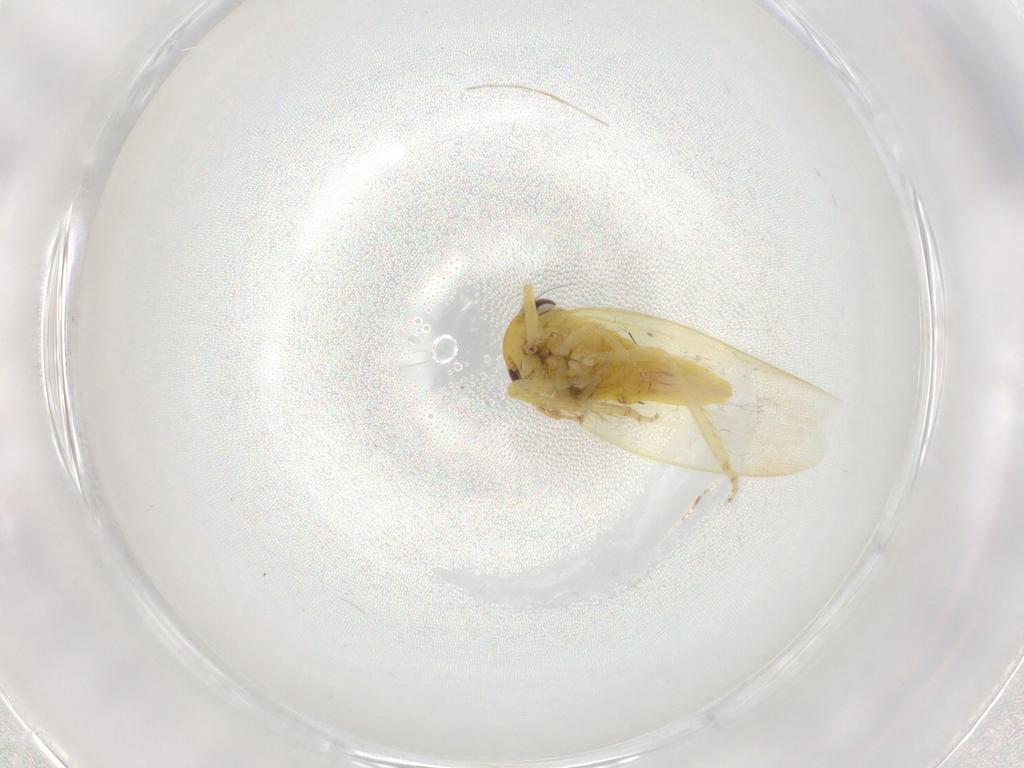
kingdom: Animalia
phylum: Arthropoda
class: Insecta
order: Hemiptera
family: Cicadellidae
